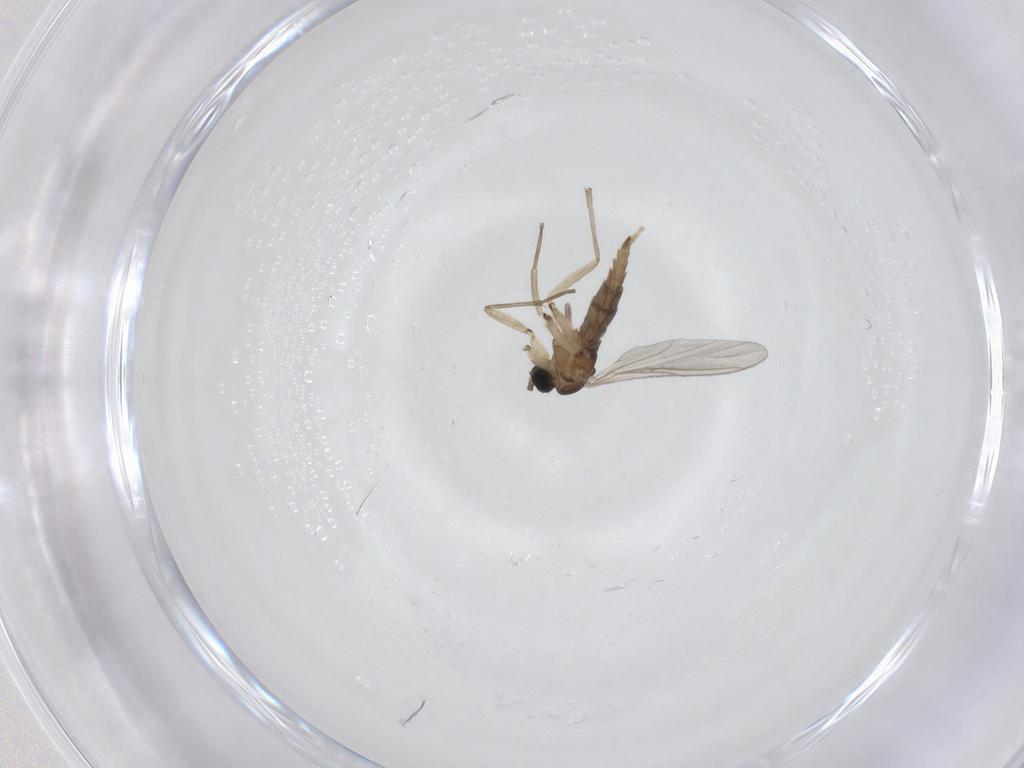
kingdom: Animalia
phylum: Arthropoda
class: Insecta
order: Diptera
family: Sciaridae
